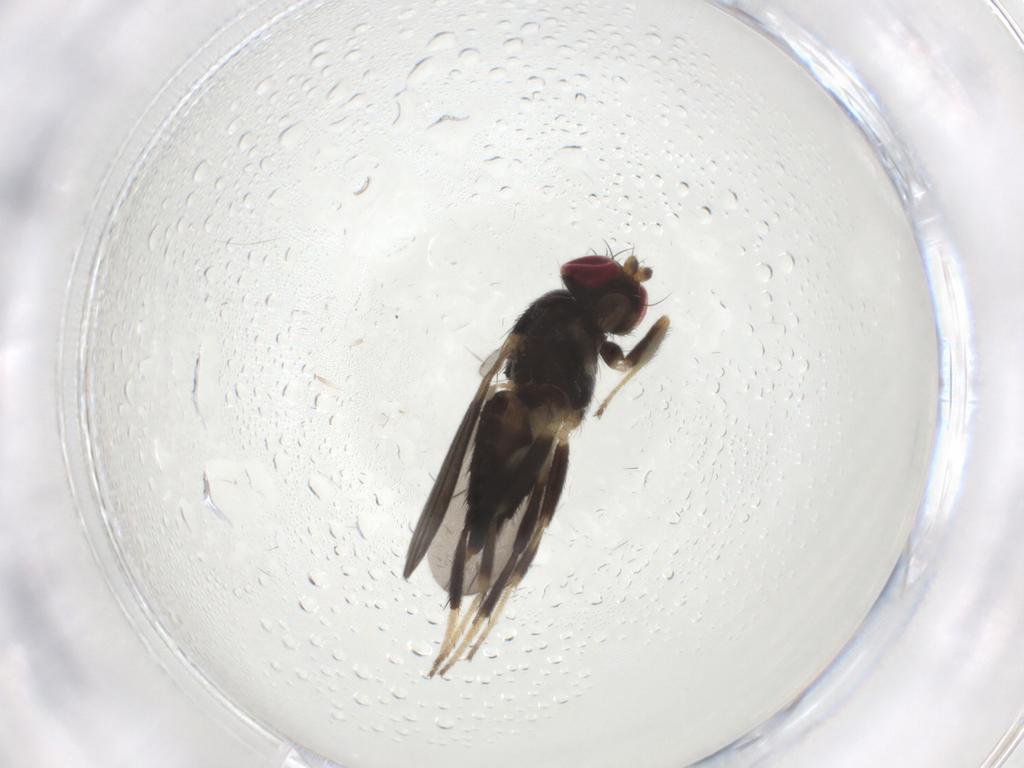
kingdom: Animalia
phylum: Arthropoda
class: Insecta
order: Diptera
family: Clusiidae
